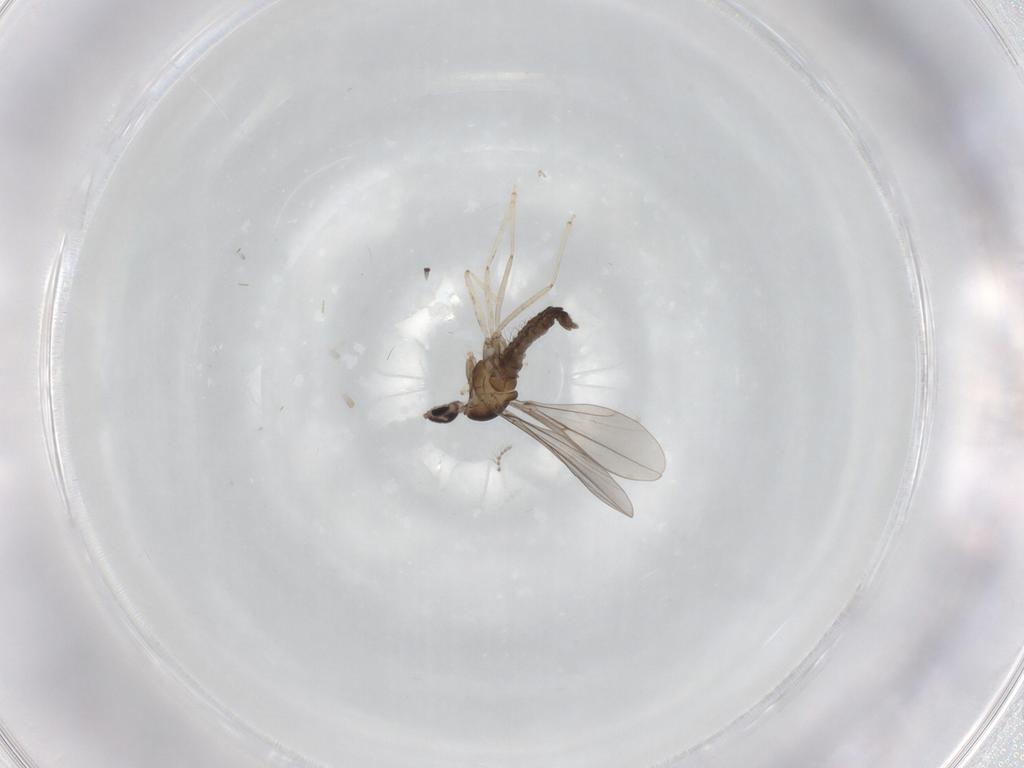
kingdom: Animalia
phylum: Arthropoda
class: Insecta
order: Diptera
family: Cecidomyiidae
